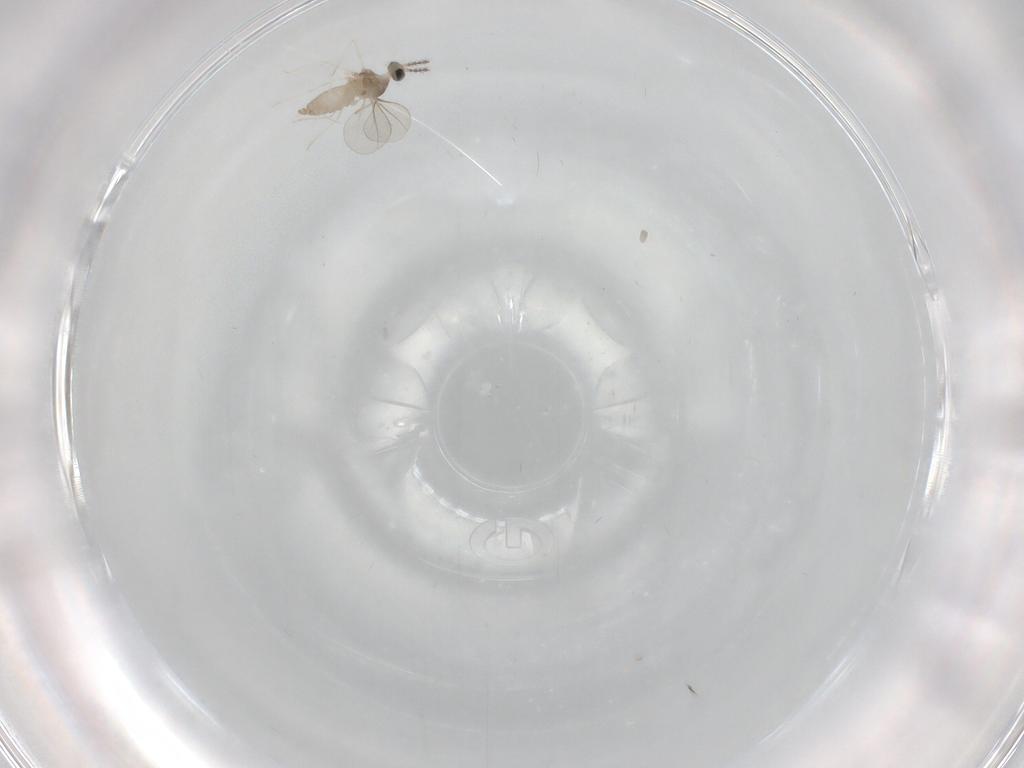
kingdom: Animalia
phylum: Arthropoda
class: Insecta
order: Diptera
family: Cecidomyiidae
